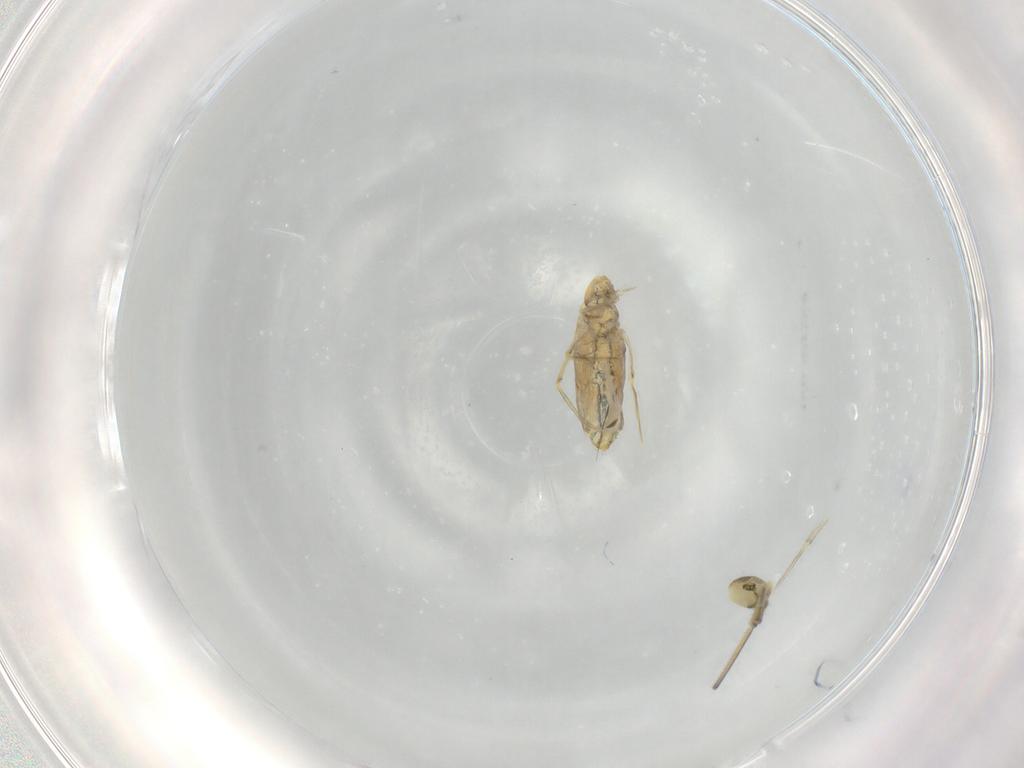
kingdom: Animalia
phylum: Arthropoda
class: Collembola
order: Entomobryomorpha
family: Paronellidae
